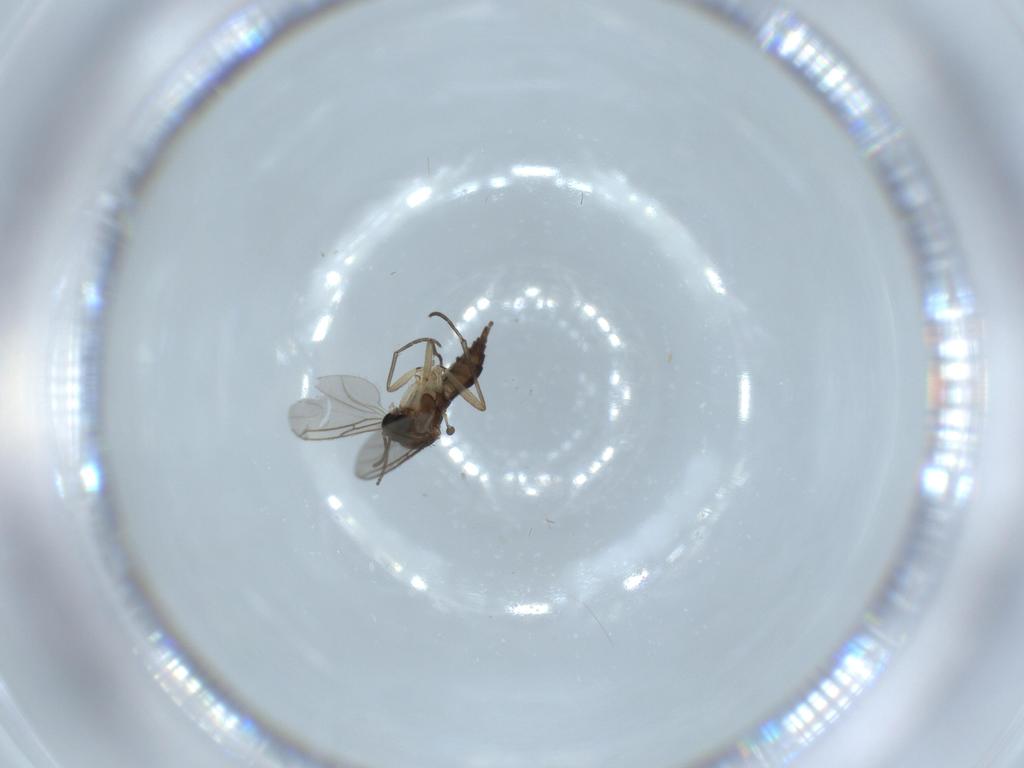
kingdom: Animalia
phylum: Arthropoda
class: Insecta
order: Diptera
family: Sciaridae
